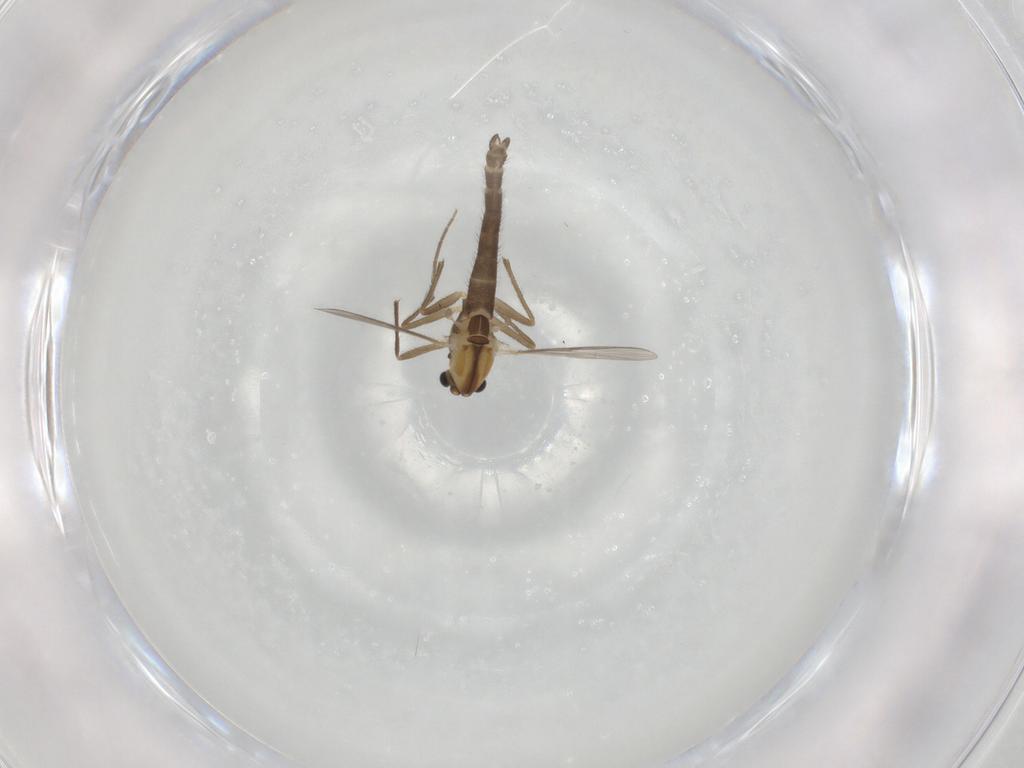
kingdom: Animalia
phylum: Arthropoda
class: Insecta
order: Diptera
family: Chironomidae
